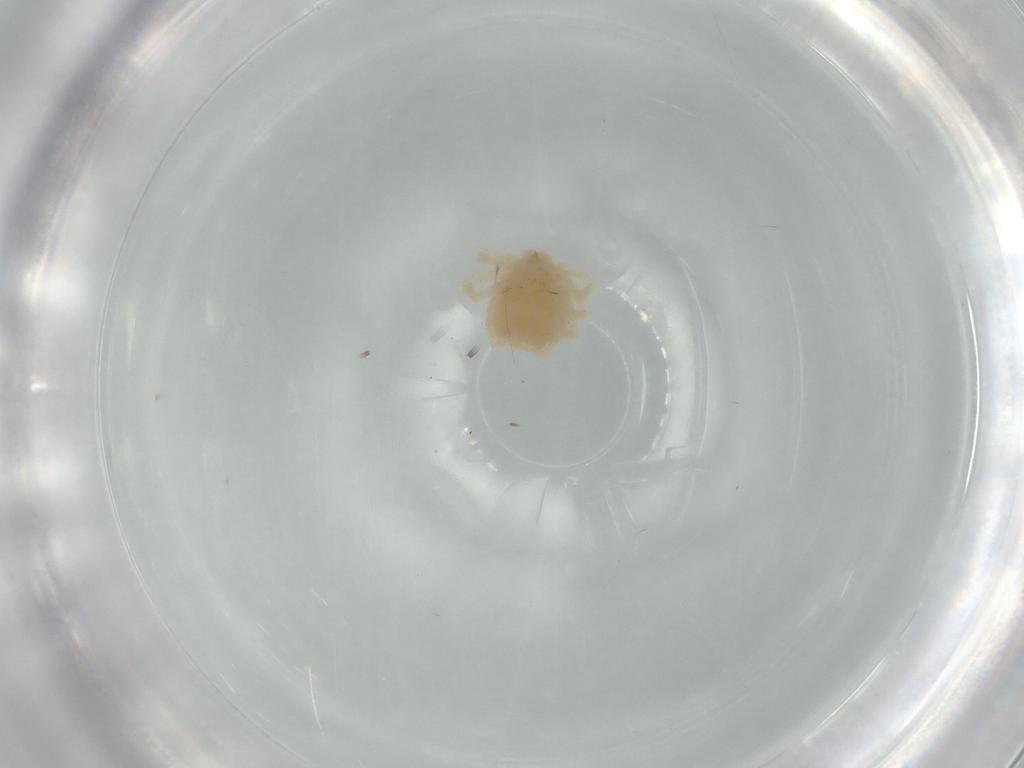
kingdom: Animalia
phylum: Arthropoda
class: Arachnida
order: Trombidiformes
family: Anystidae
